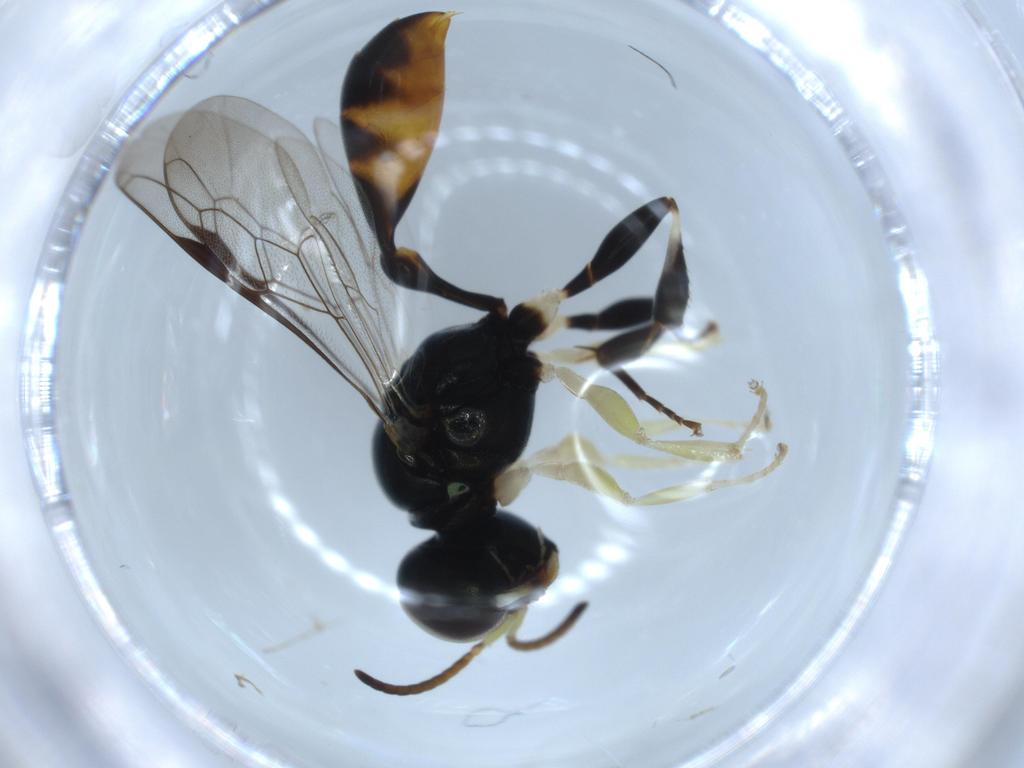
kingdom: Animalia
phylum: Arthropoda
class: Insecta
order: Hymenoptera
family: Crabronidae
